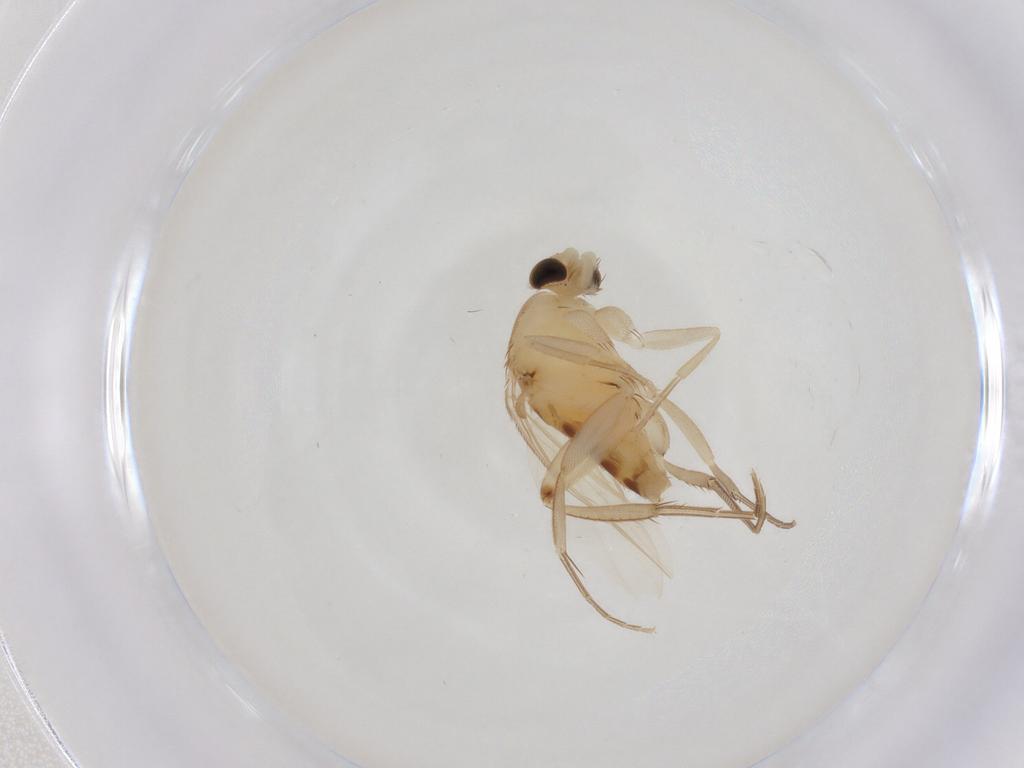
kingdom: Animalia
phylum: Arthropoda
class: Insecta
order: Diptera
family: Phoridae
